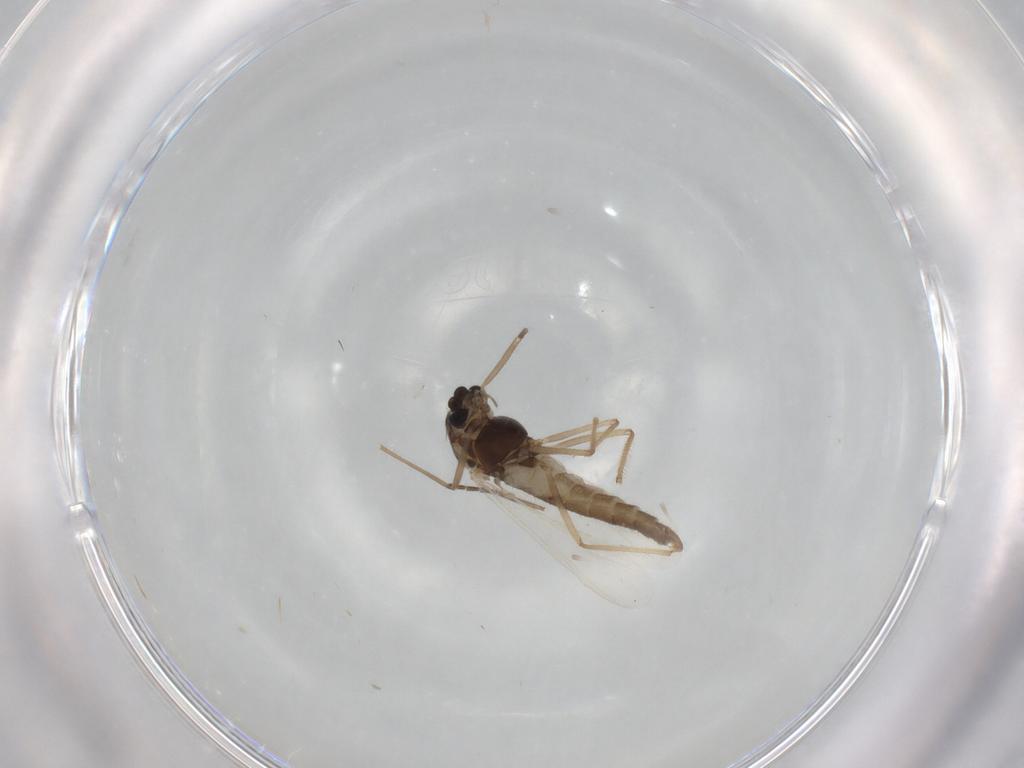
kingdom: Animalia
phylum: Arthropoda
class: Insecta
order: Diptera
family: Chironomidae
